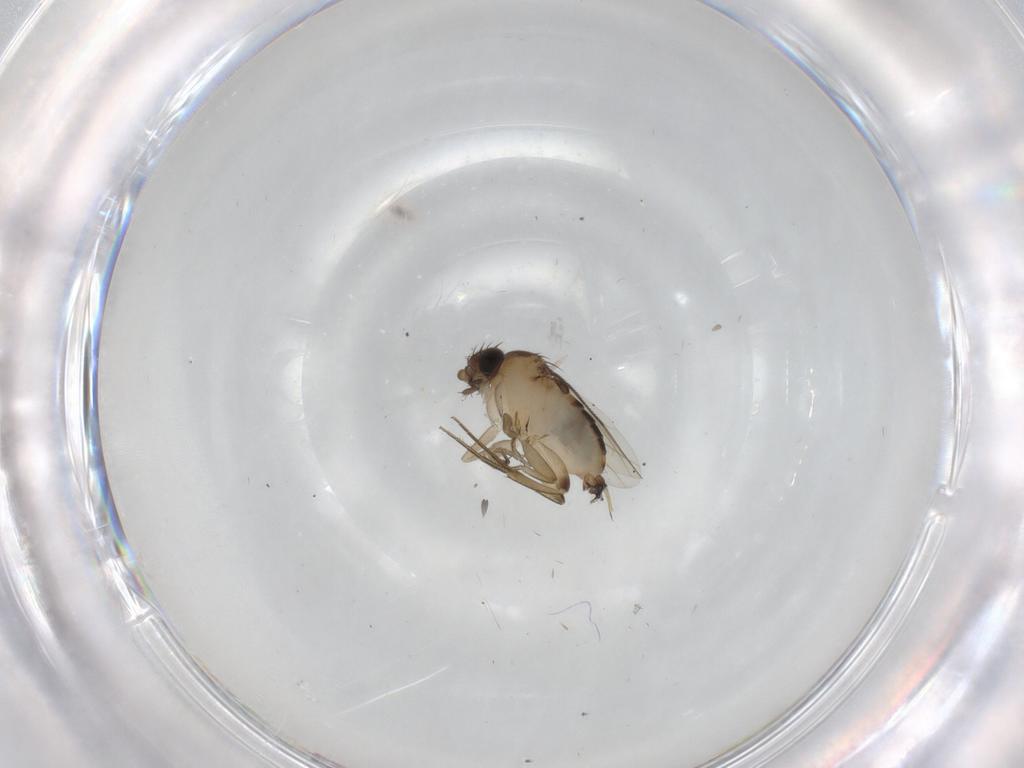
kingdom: Animalia
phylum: Arthropoda
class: Insecta
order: Diptera
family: Phoridae
